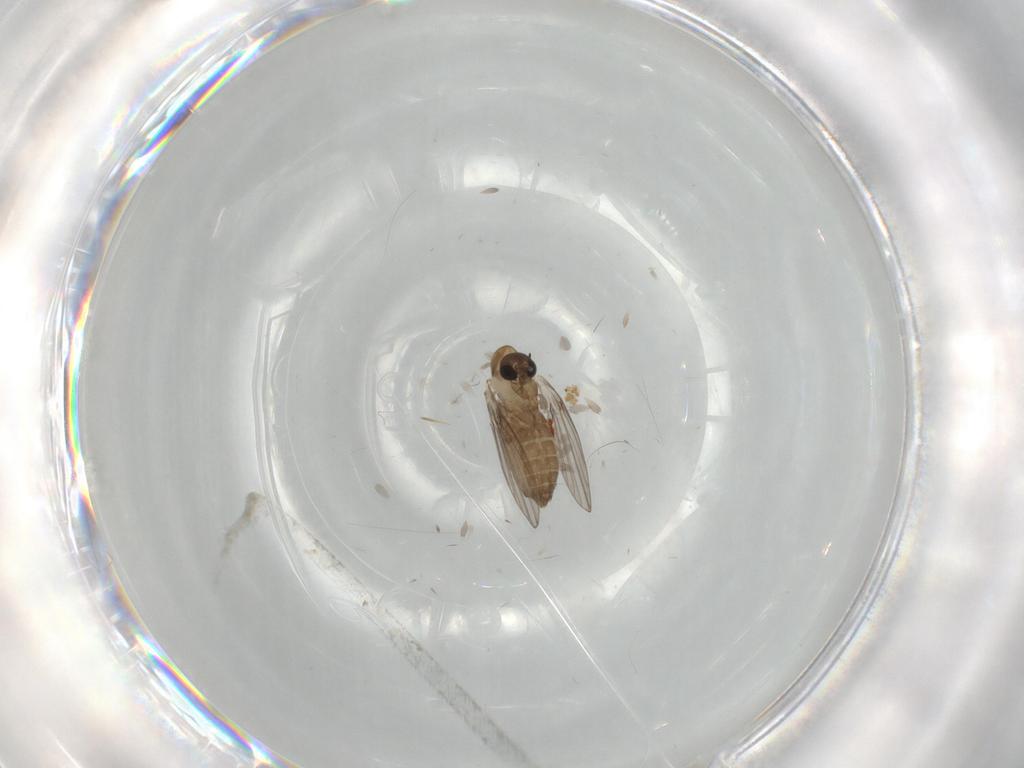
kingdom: Animalia
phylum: Arthropoda
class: Insecta
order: Diptera
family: Psychodidae
